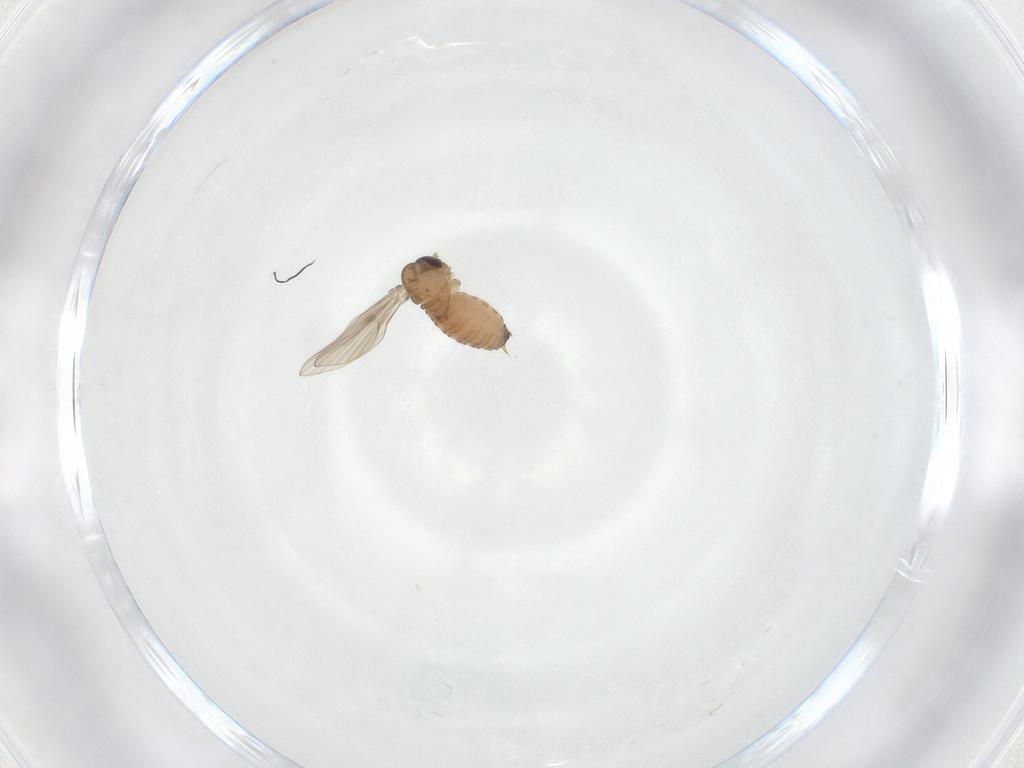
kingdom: Animalia
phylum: Arthropoda
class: Insecta
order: Diptera
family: Psychodidae
